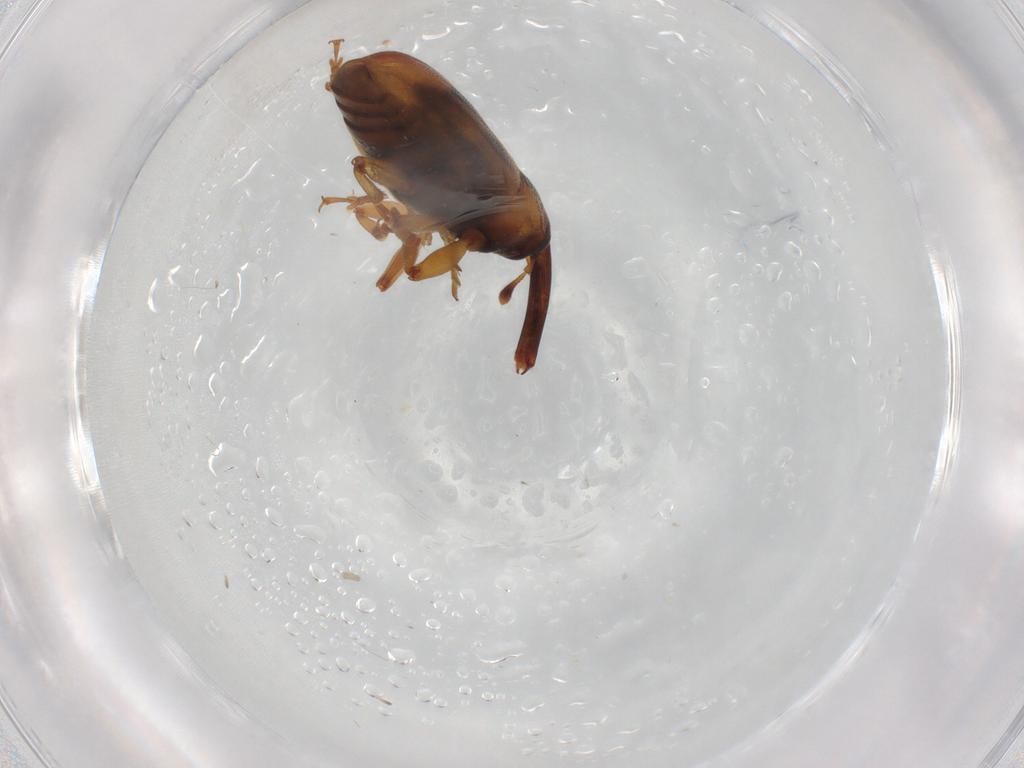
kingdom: Animalia
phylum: Arthropoda
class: Insecta
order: Coleoptera
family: Curculionidae
